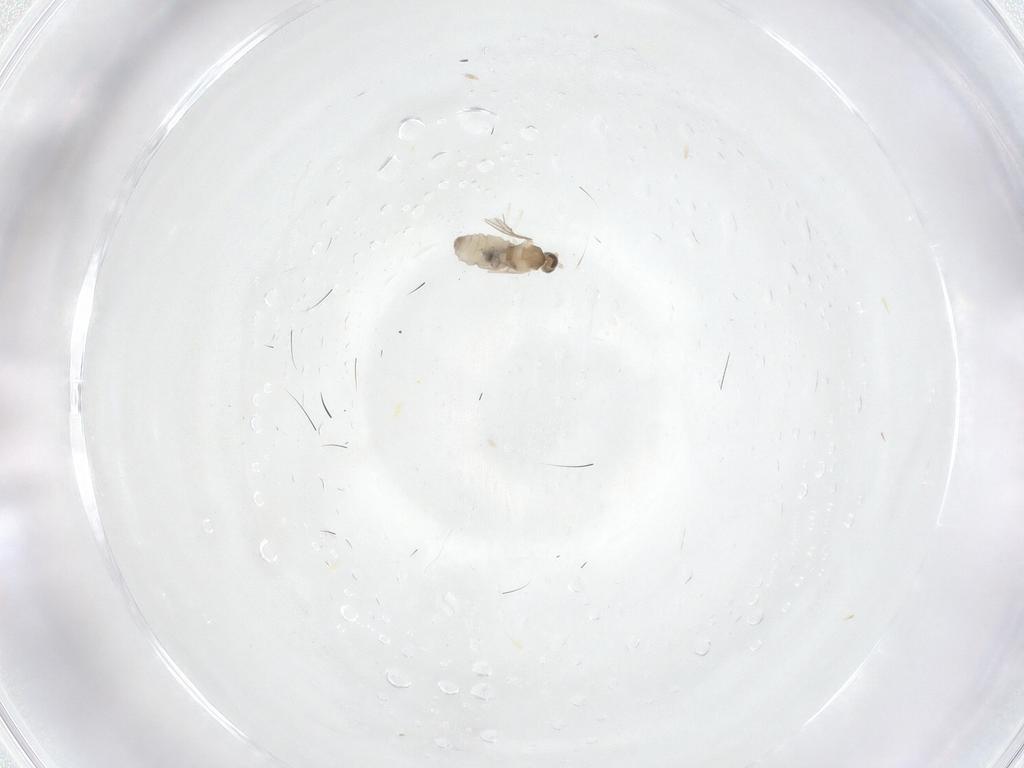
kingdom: Animalia
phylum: Arthropoda
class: Insecta
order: Diptera
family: Cecidomyiidae
